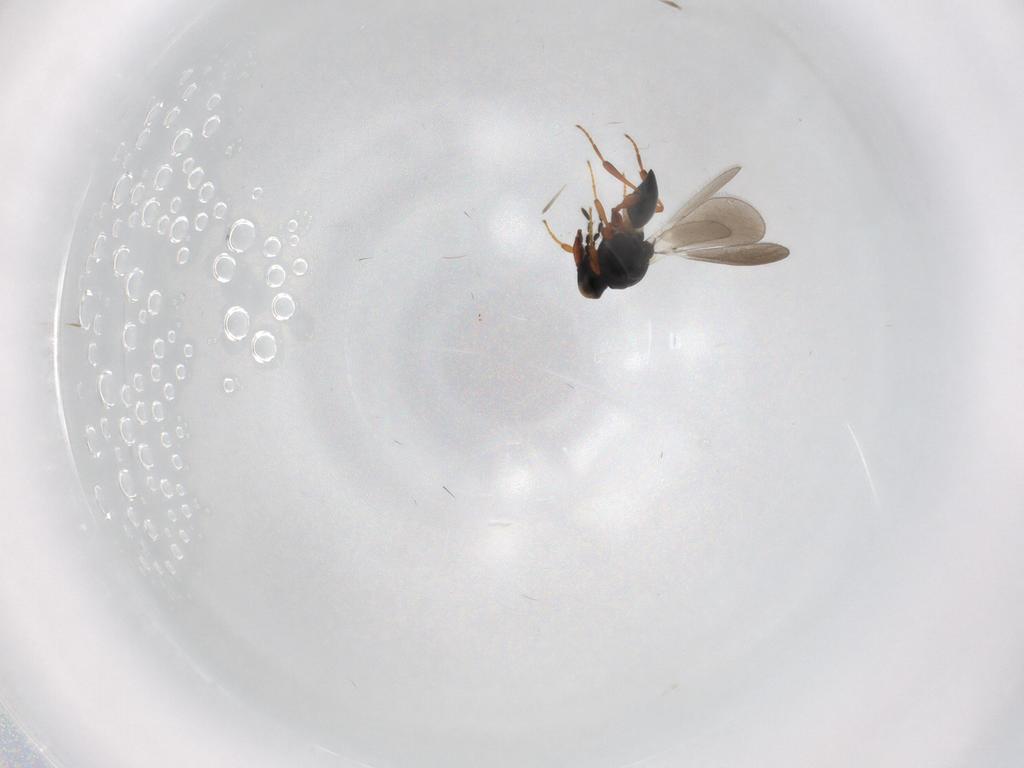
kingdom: Animalia
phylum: Arthropoda
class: Insecta
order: Hymenoptera
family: Platygastridae
